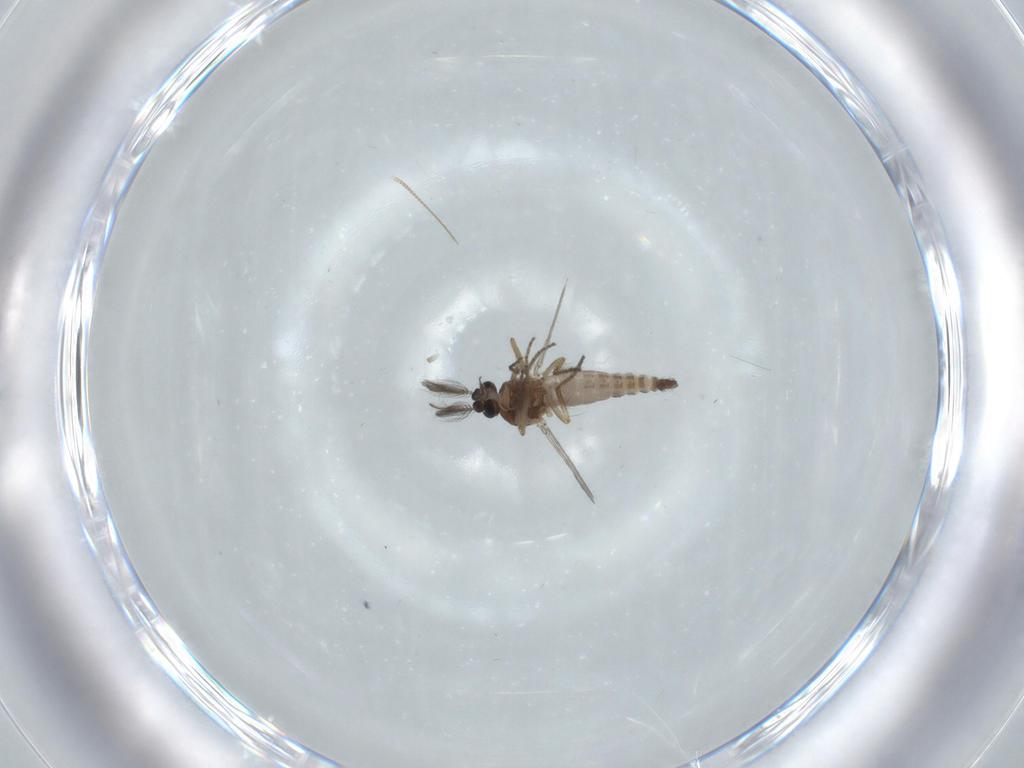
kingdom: Animalia
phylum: Arthropoda
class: Insecta
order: Diptera
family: Chironomidae
